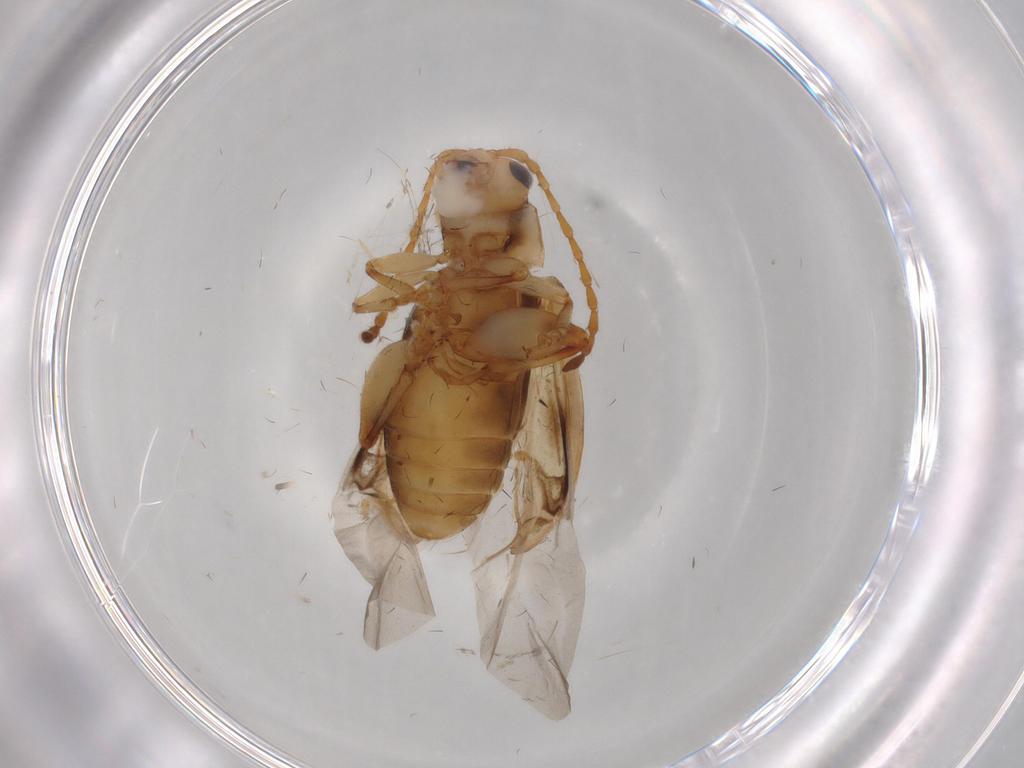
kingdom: Animalia
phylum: Arthropoda
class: Insecta
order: Coleoptera
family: Chrysomelidae
